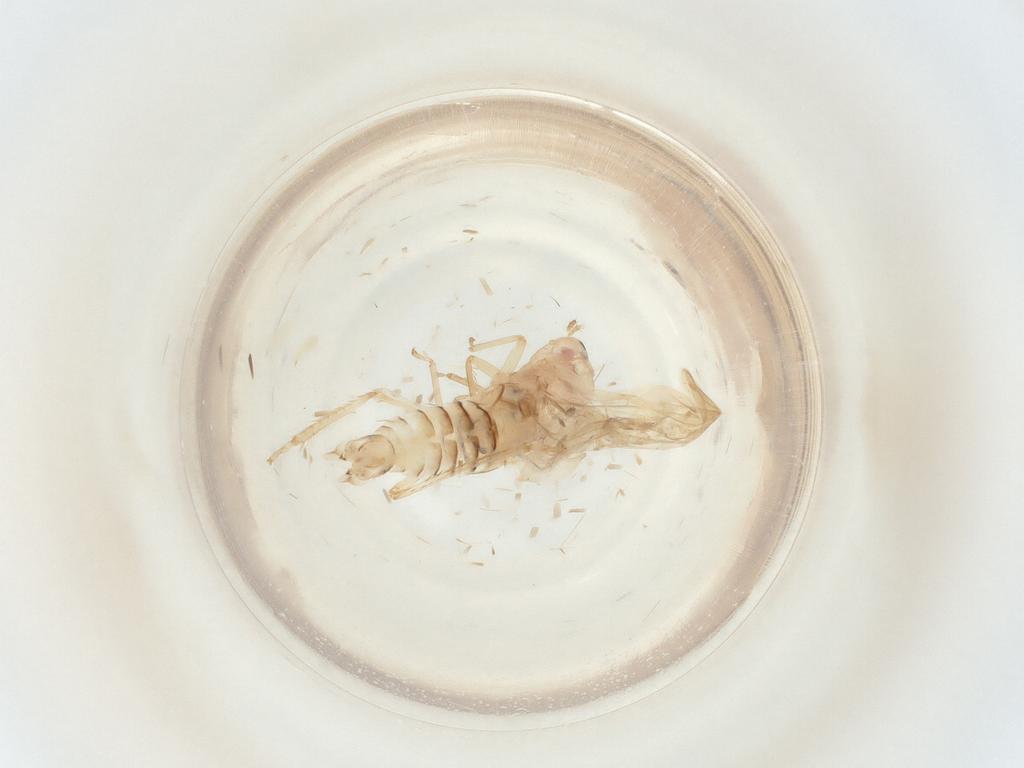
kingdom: Animalia
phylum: Arthropoda
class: Insecta
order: Hemiptera
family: Cicadellidae
